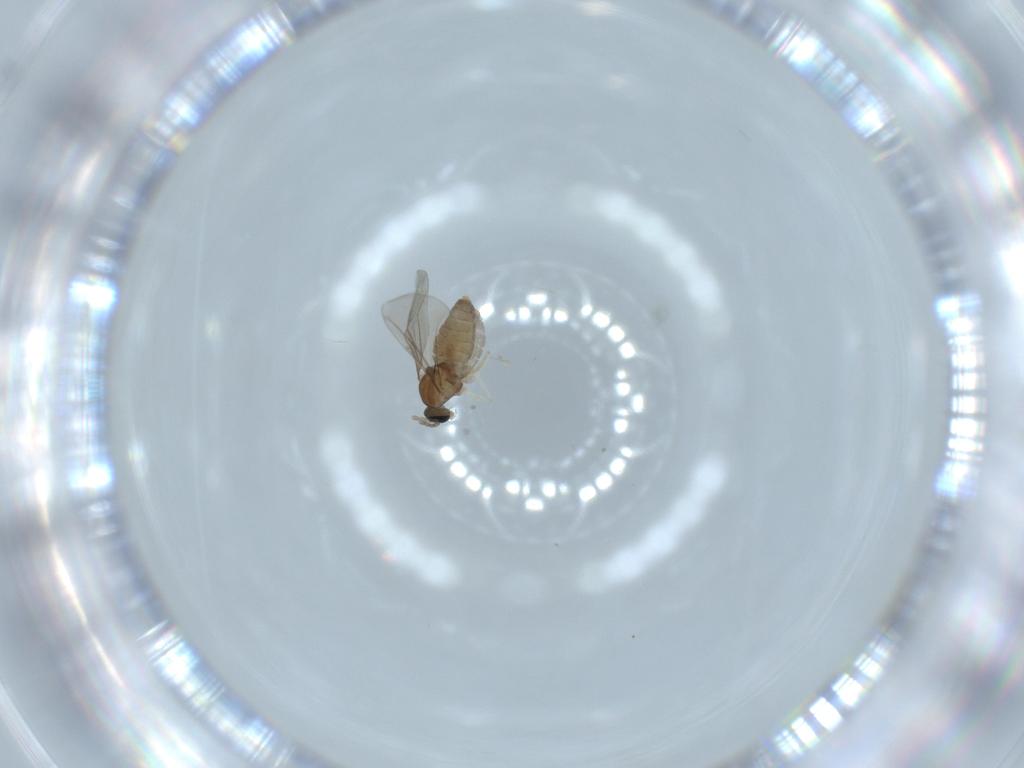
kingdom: Animalia
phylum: Arthropoda
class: Insecta
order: Diptera
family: Cecidomyiidae
